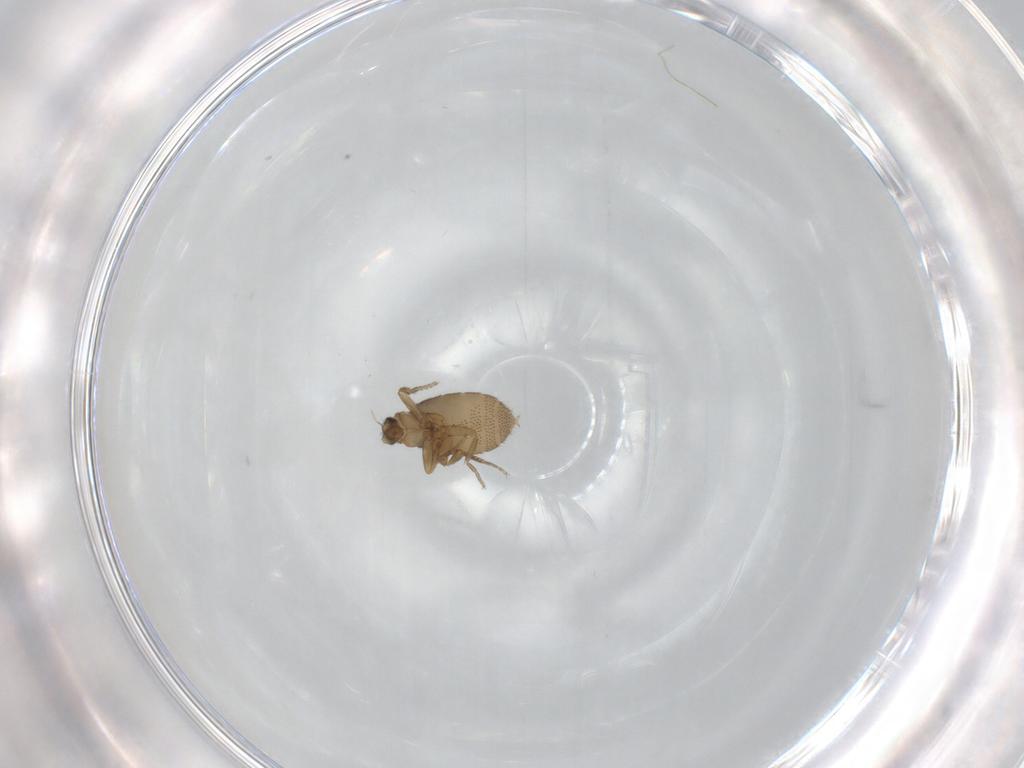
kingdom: Animalia
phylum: Arthropoda
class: Insecta
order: Diptera
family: Phoridae
